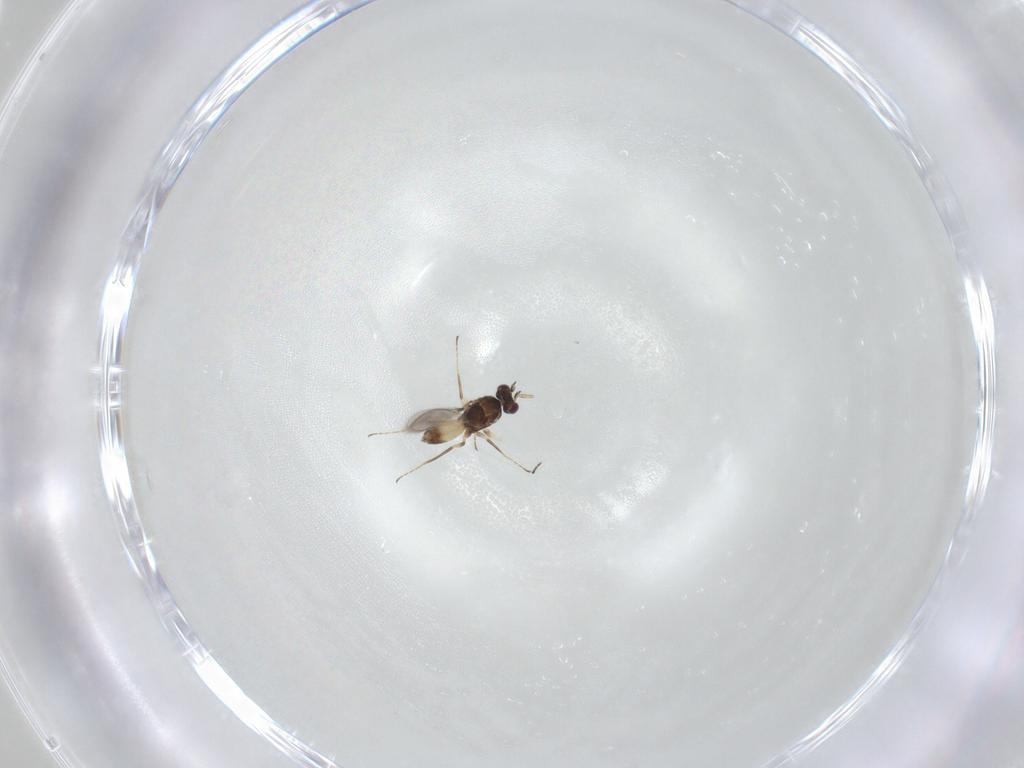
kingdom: Animalia
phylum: Arthropoda
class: Insecta
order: Hymenoptera
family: Mymaridae
